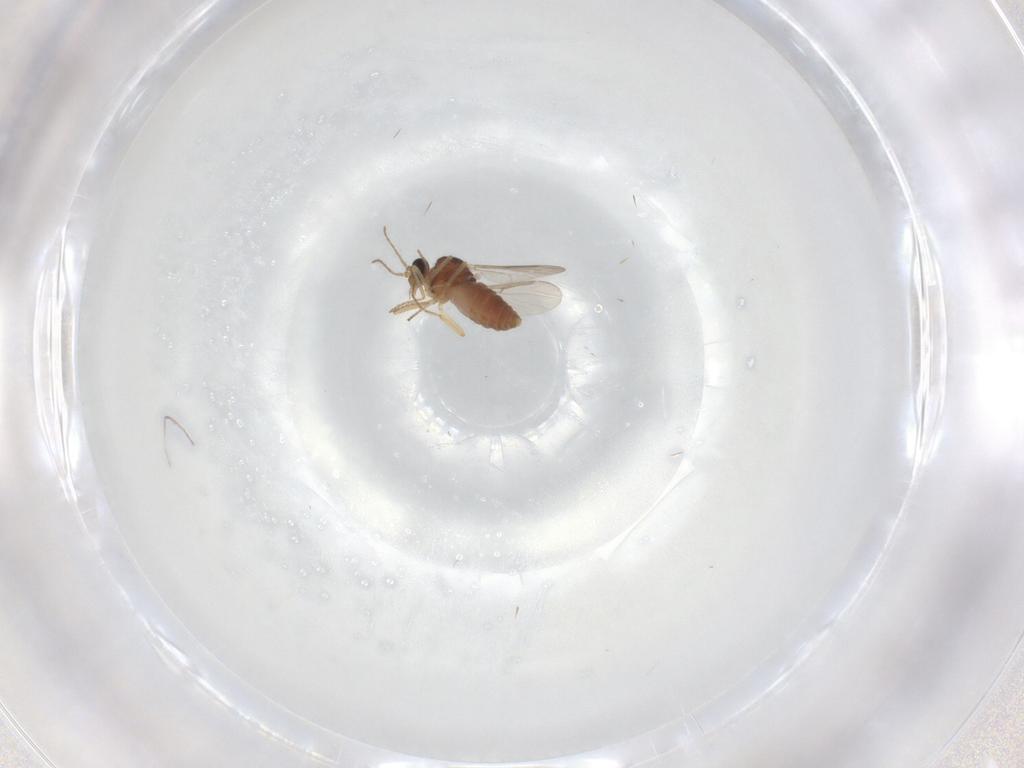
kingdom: Animalia
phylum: Arthropoda
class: Insecta
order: Diptera
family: Ceratopogonidae
